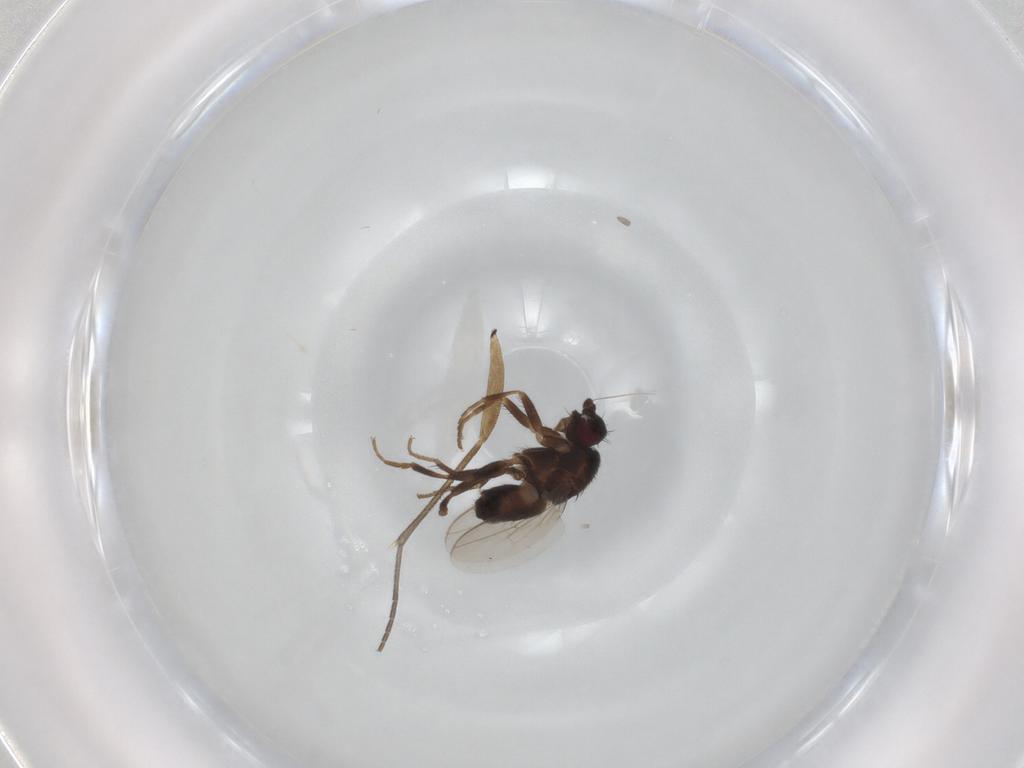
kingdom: Animalia
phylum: Arthropoda
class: Insecta
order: Diptera
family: Sphaeroceridae
